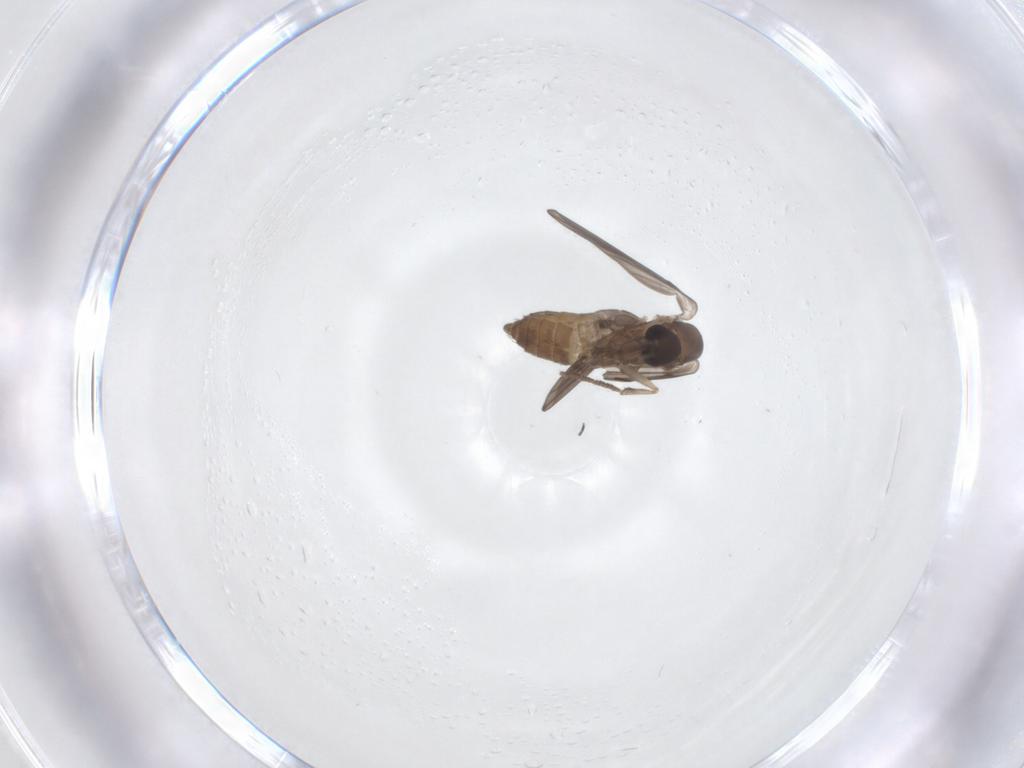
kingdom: Animalia
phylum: Arthropoda
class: Insecta
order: Diptera
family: Psychodidae
